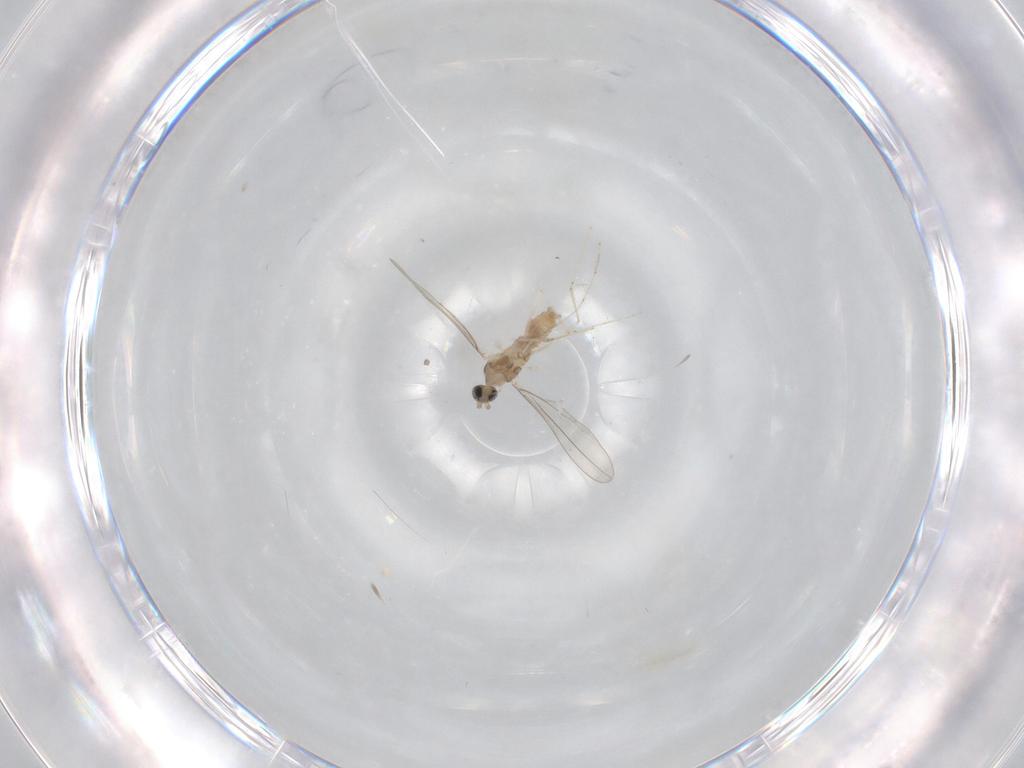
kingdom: Animalia
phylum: Arthropoda
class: Insecta
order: Diptera
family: Cecidomyiidae
